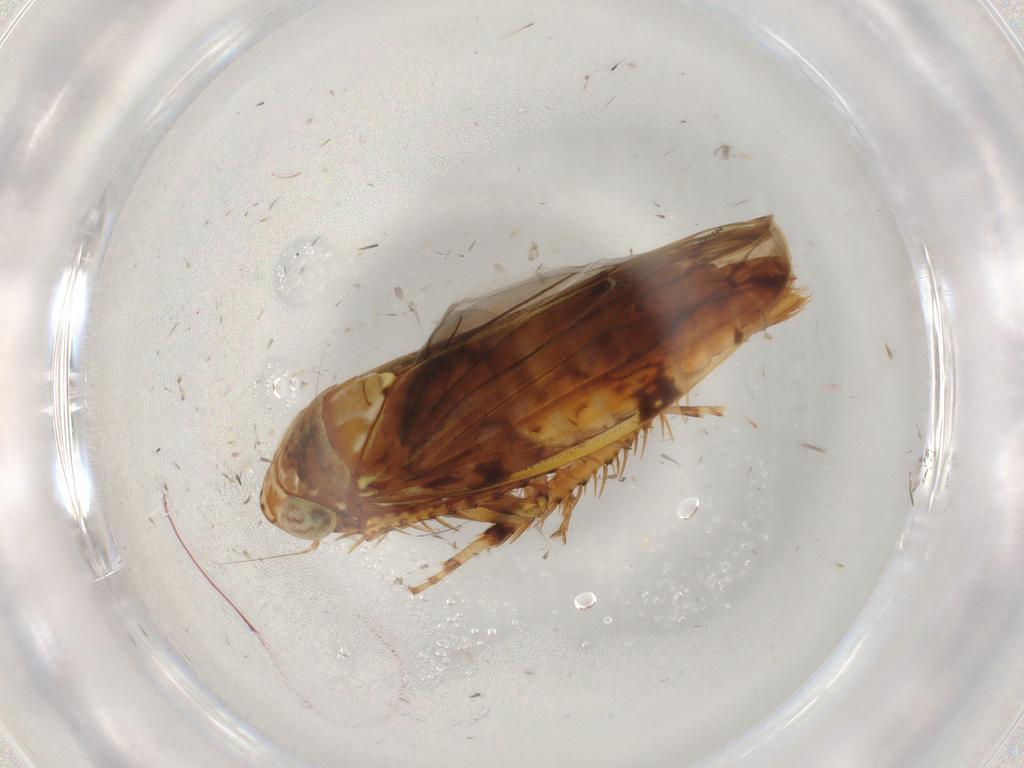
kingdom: Animalia
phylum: Arthropoda
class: Insecta
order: Hemiptera
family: Cicadellidae
